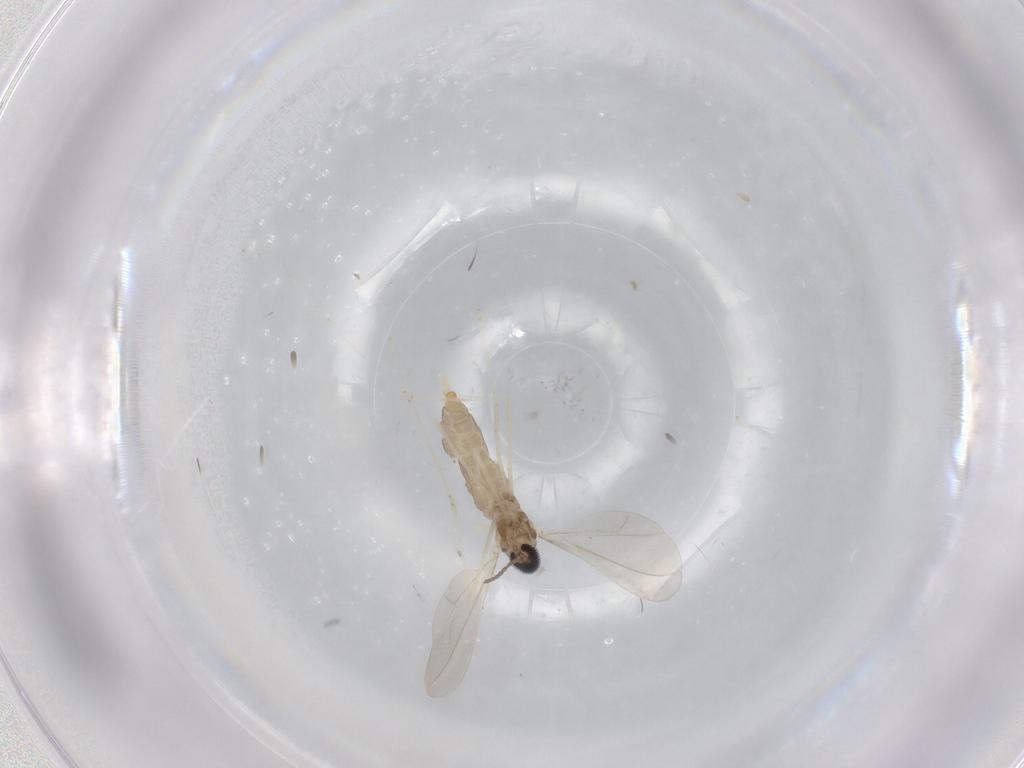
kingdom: Animalia
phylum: Arthropoda
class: Insecta
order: Diptera
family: Cecidomyiidae
